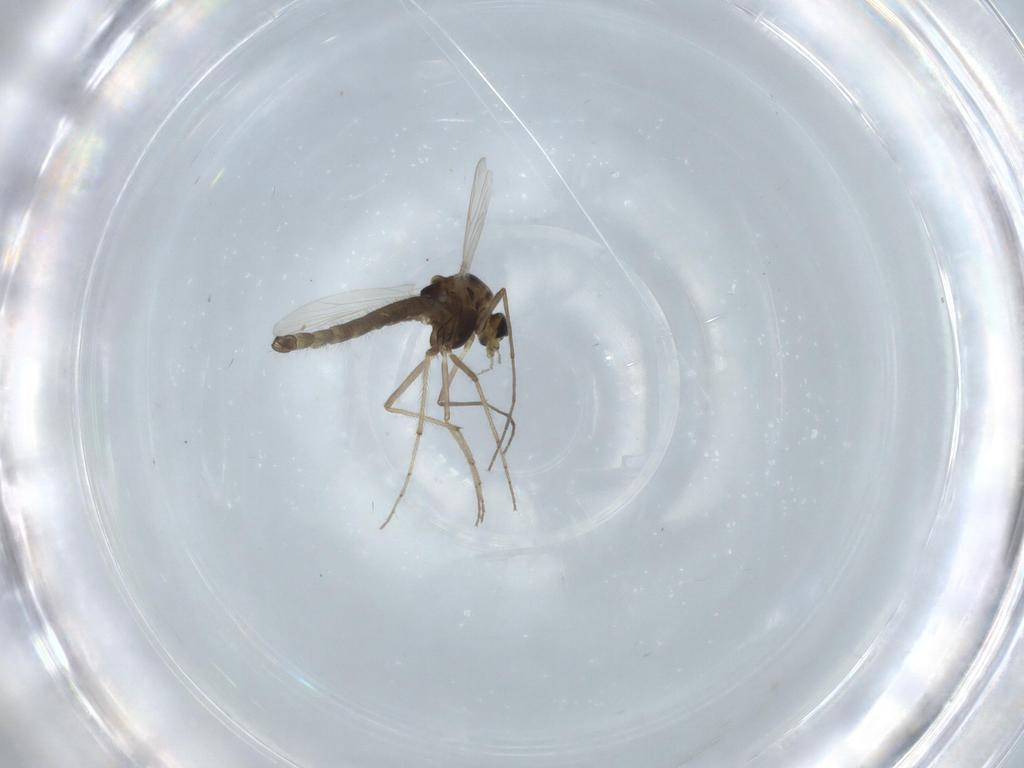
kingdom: Animalia
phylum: Arthropoda
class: Insecta
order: Diptera
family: Chironomidae
